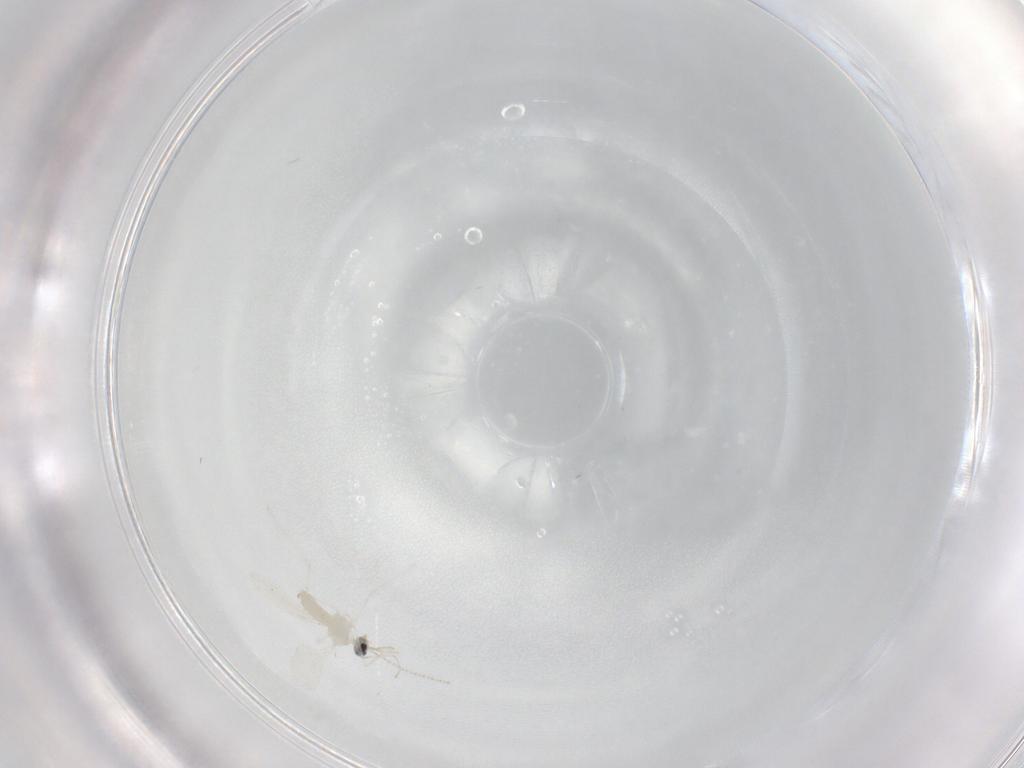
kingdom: Animalia
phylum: Arthropoda
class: Insecta
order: Diptera
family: Cecidomyiidae
